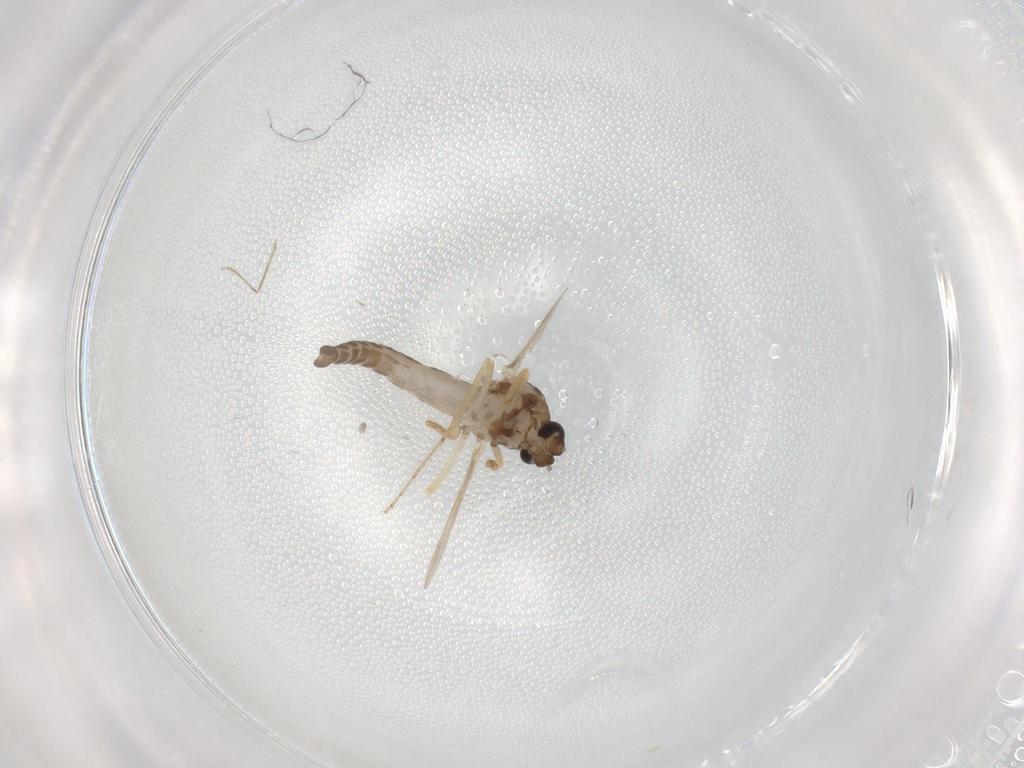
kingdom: Animalia
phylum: Arthropoda
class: Insecta
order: Diptera
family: Ceratopogonidae
